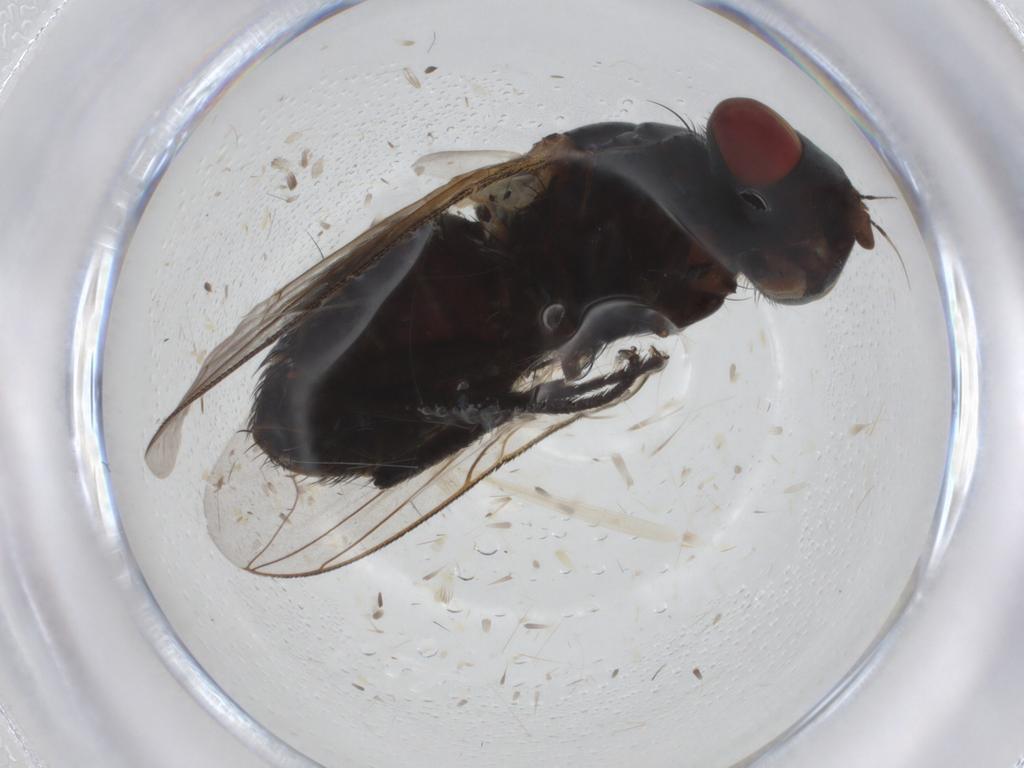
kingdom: Animalia
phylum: Arthropoda
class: Insecta
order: Diptera
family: Sarcophagidae
